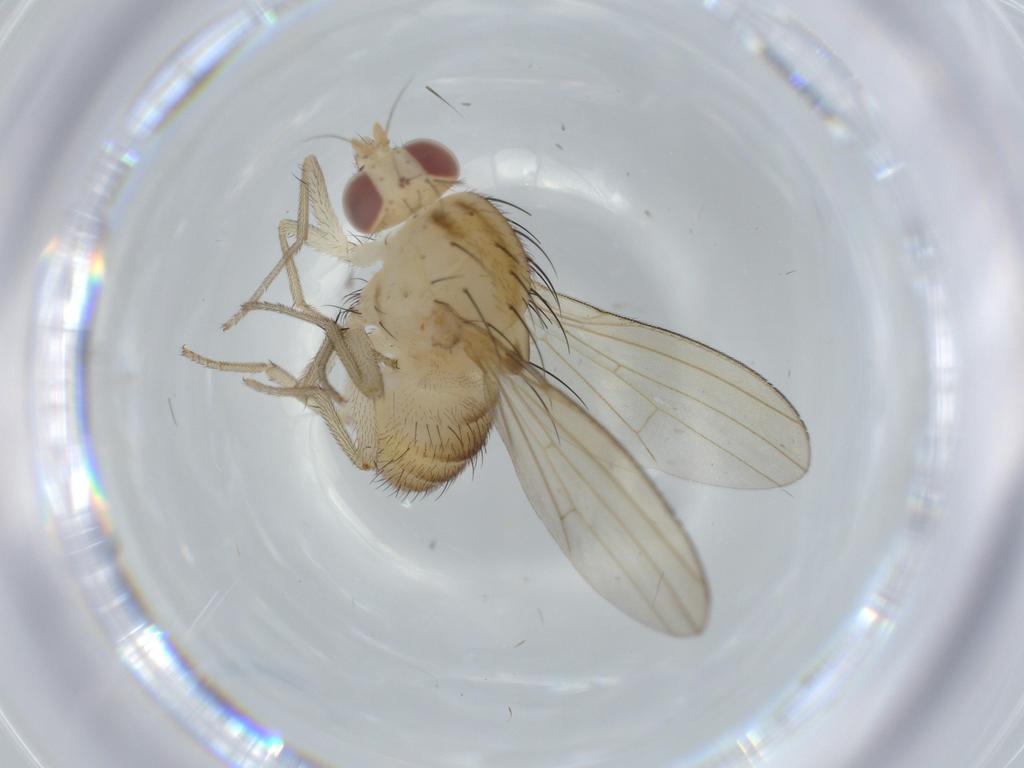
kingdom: Animalia
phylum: Arthropoda
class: Insecta
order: Diptera
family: Lauxaniidae
